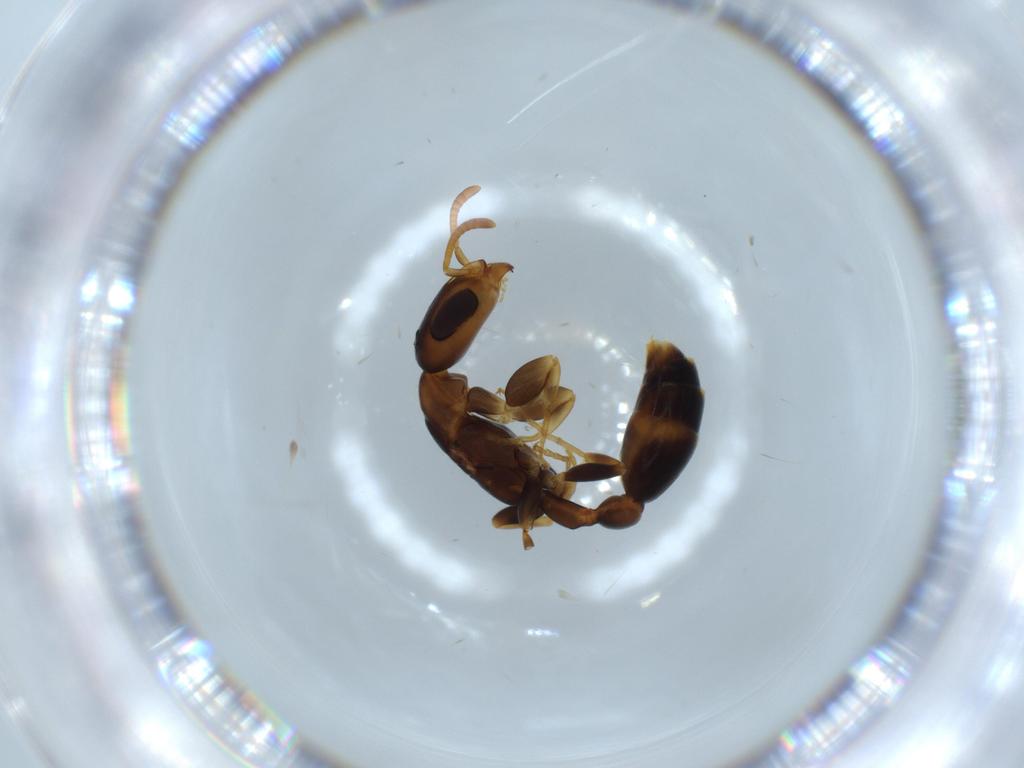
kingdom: Animalia
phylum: Arthropoda
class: Insecta
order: Hymenoptera
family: Formicidae
